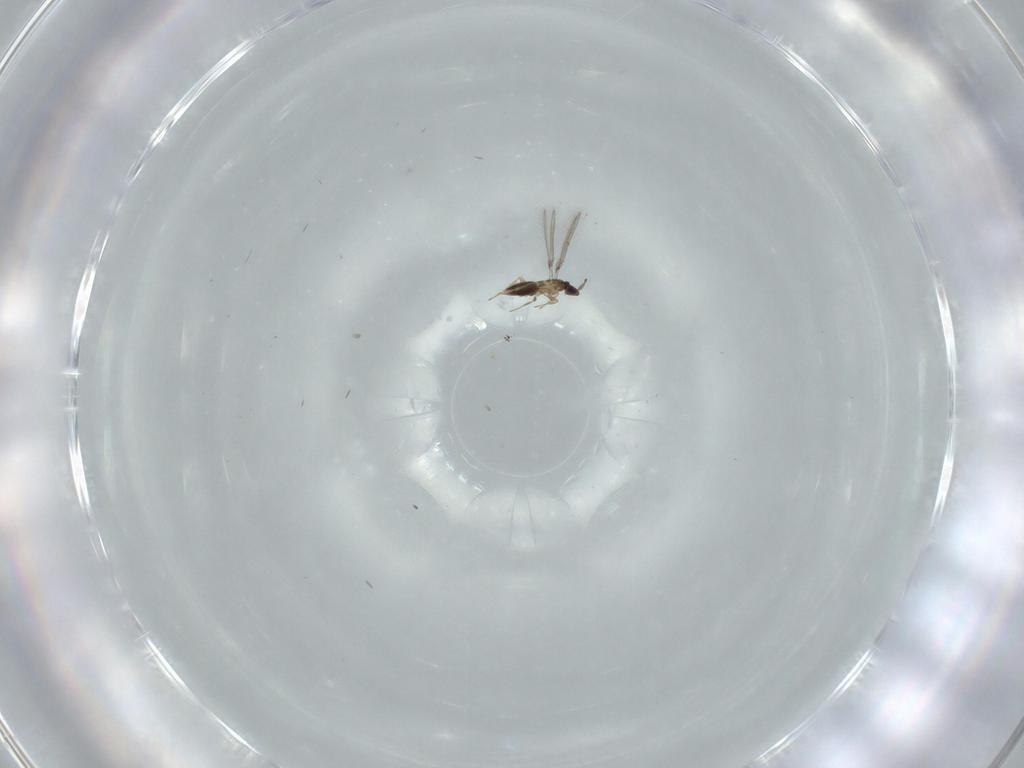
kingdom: Animalia
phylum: Arthropoda
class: Insecta
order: Hymenoptera
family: Mymaridae
